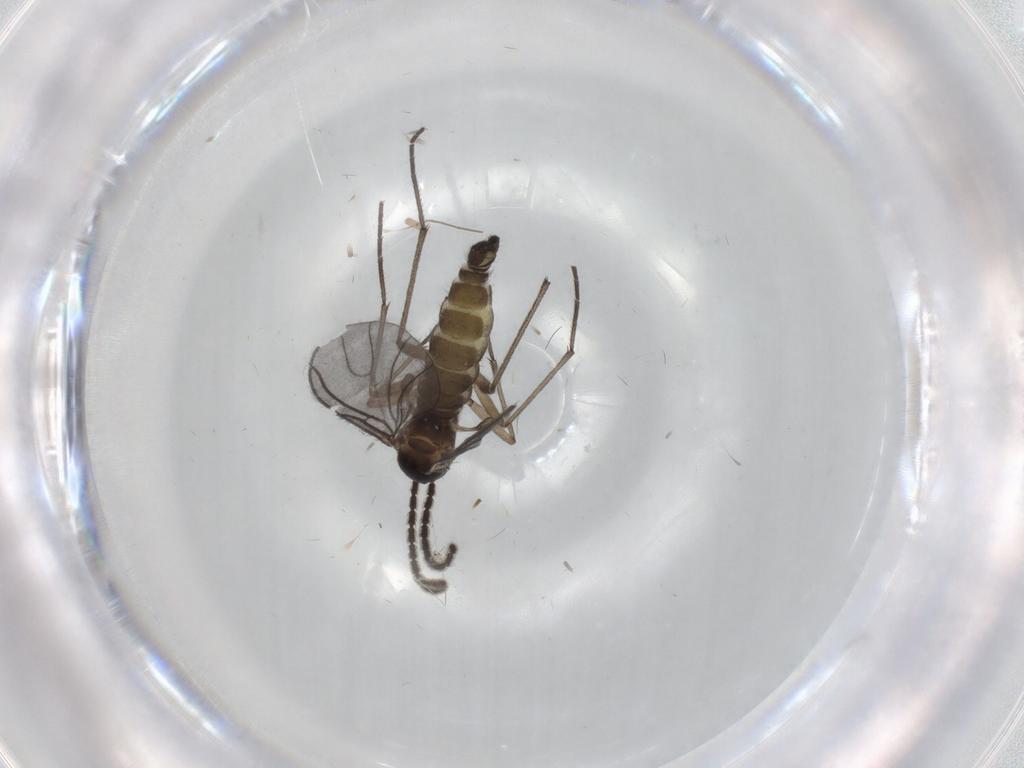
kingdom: Animalia
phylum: Arthropoda
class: Insecta
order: Diptera
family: Chironomidae
